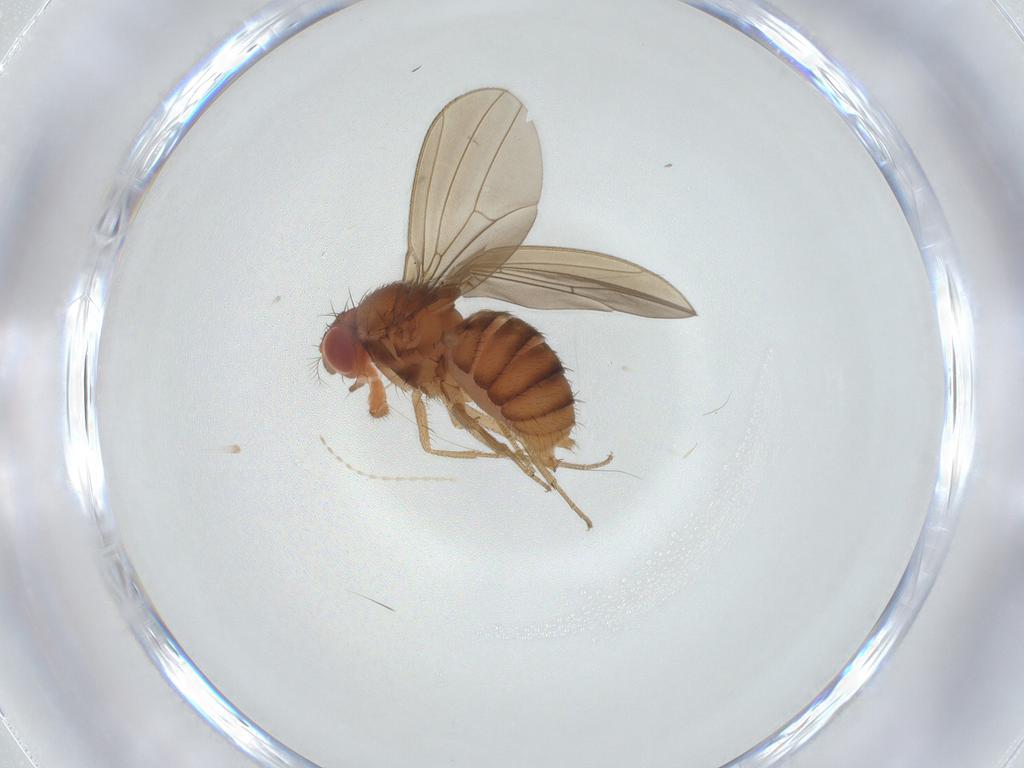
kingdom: Animalia
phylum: Arthropoda
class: Insecta
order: Diptera
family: Drosophilidae
